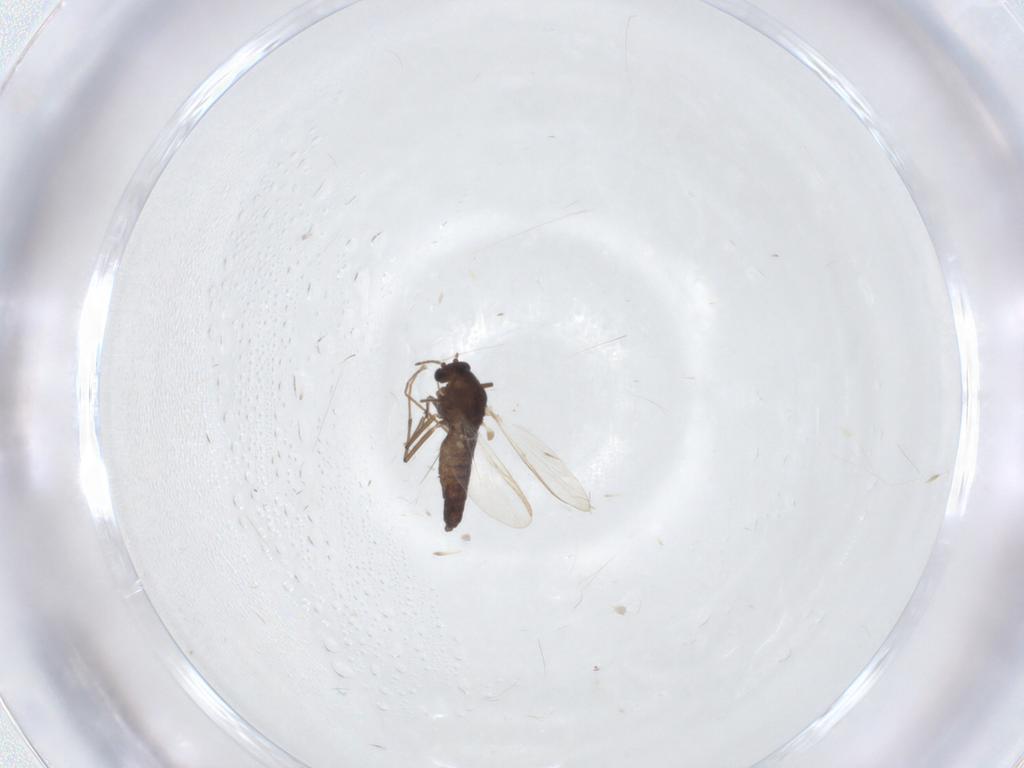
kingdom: Animalia
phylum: Arthropoda
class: Insecta
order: Diptera
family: Chironomidae
